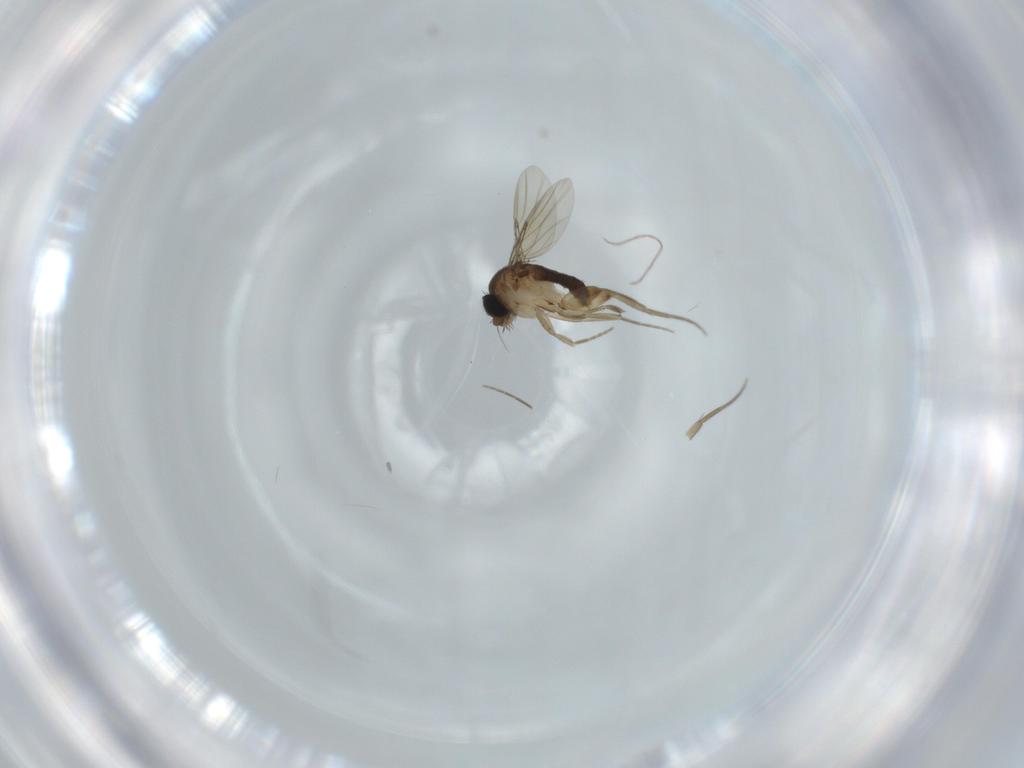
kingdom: Animalia
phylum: Arthropoda
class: Insecta
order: Diptera
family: Phoridae
